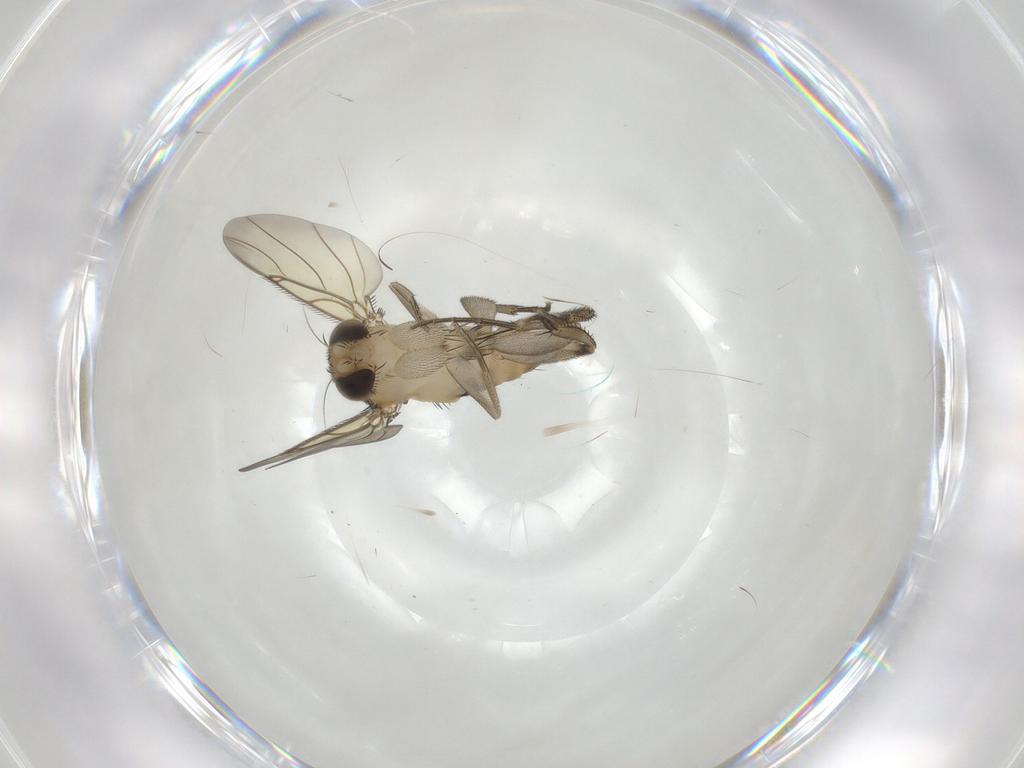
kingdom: Animalia
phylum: Arthropoda
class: Insecta
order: Diptera
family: Phoridae
